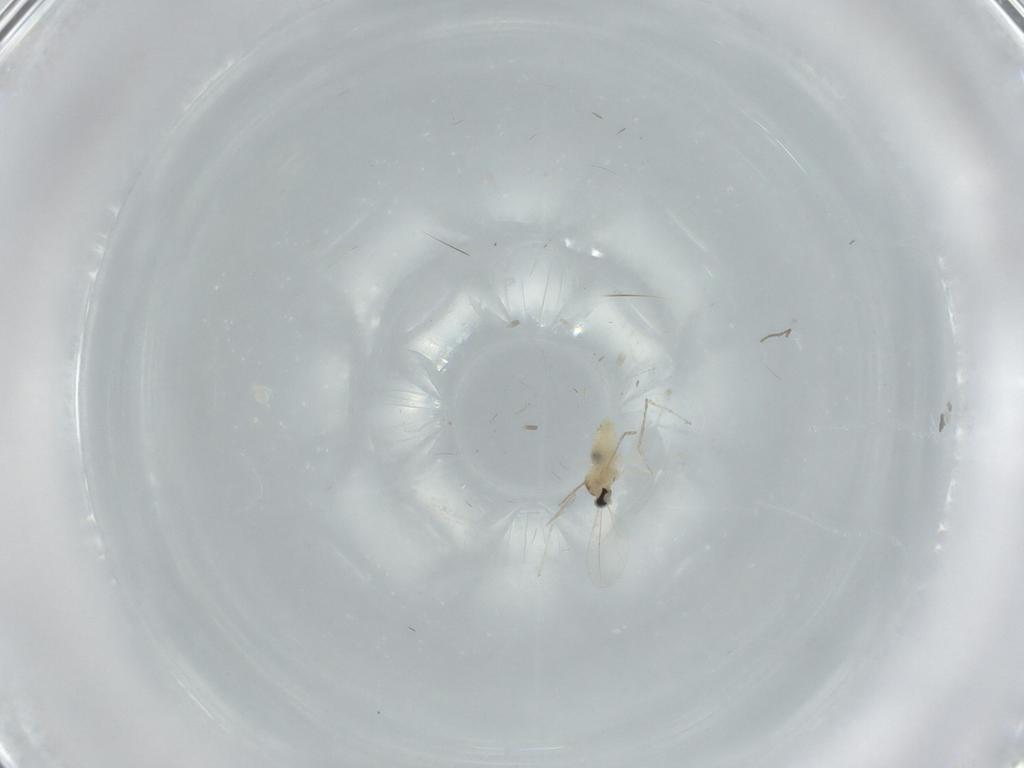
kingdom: Animalia
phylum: Arthropoda
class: Insecta
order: Diptera
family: Cecidomyiidae
